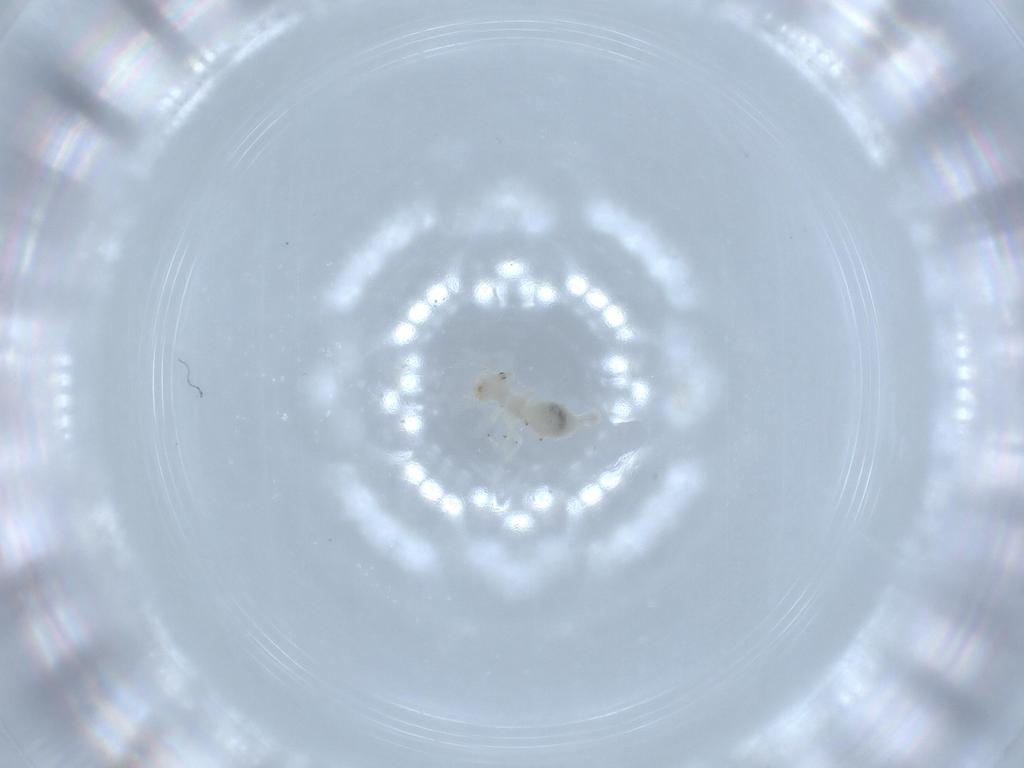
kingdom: Animalia
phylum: Arthropoda
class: Insecta
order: Psocodea
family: Caeciliusidae
